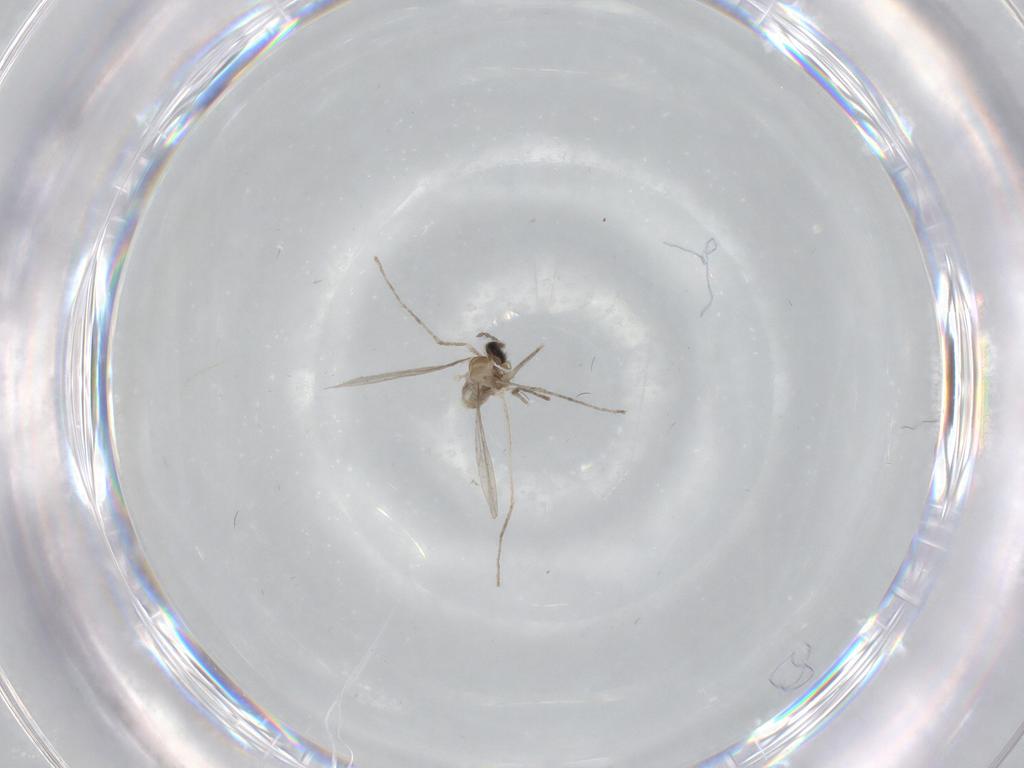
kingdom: Animalia
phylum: Arthropoda
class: Insecta
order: Diptera
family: Cecidomyiidae
